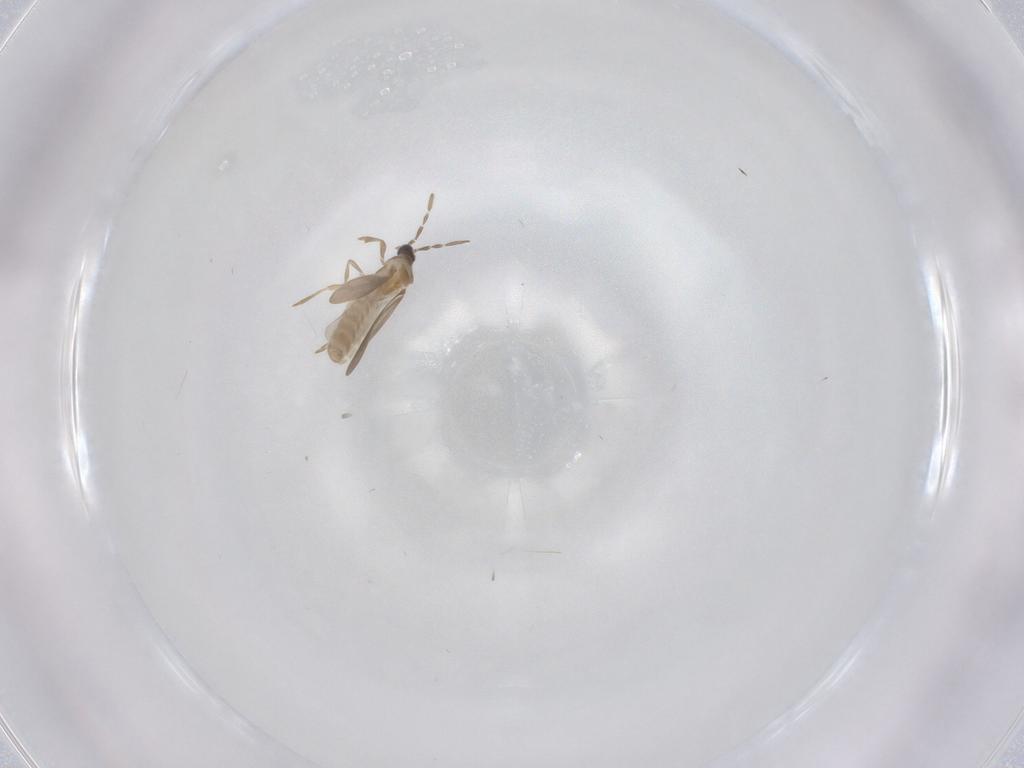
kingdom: Animalia
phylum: Arthropoda
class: Insecta
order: Hemiptera
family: Enicocephalidae
